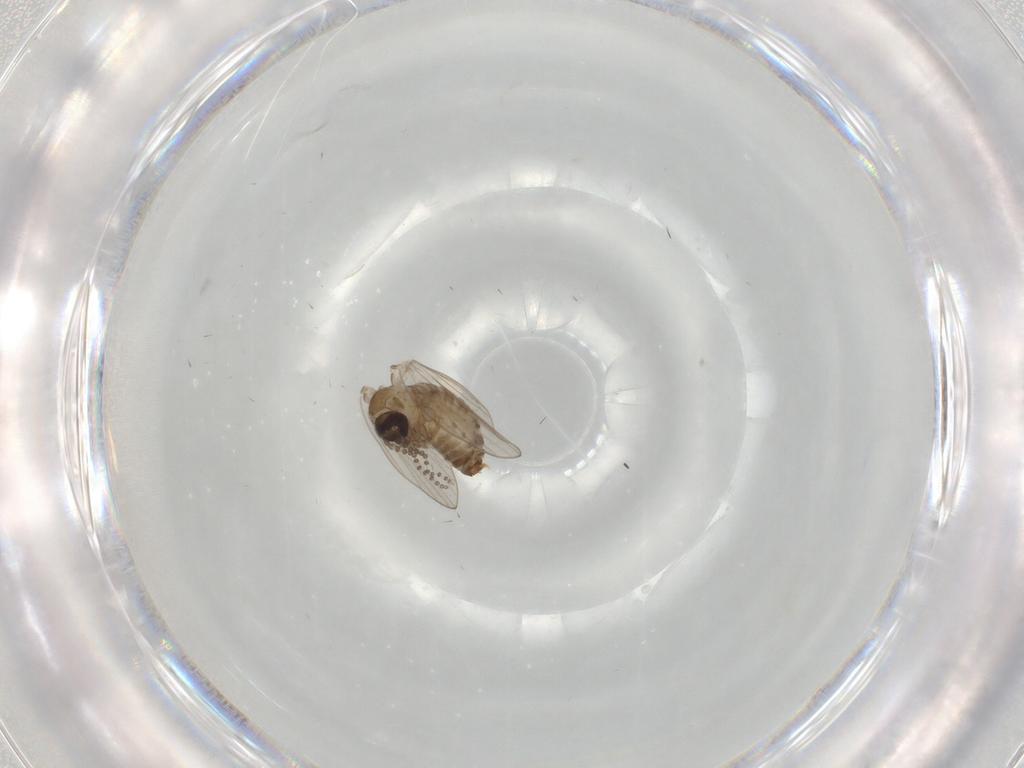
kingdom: Animalia
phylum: Arthropoda
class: Insecta
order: Diptera
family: Psychodidae
